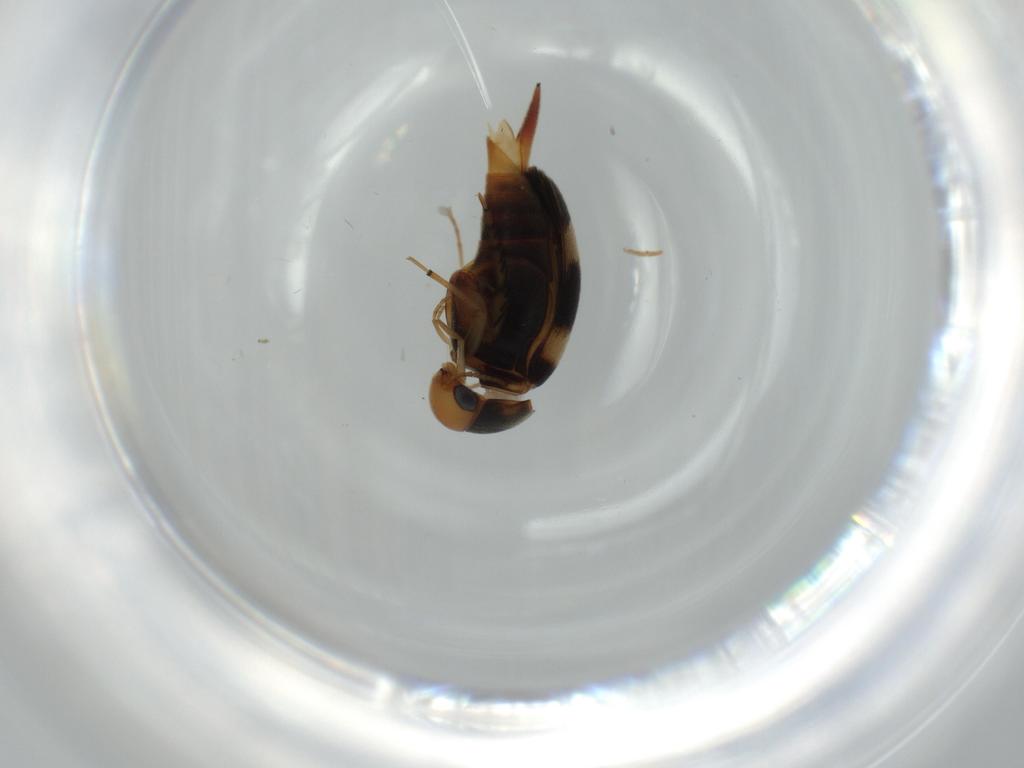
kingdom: Animalia
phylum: Arthropoda
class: Insecta
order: Coleoptera
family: Mordellidae
